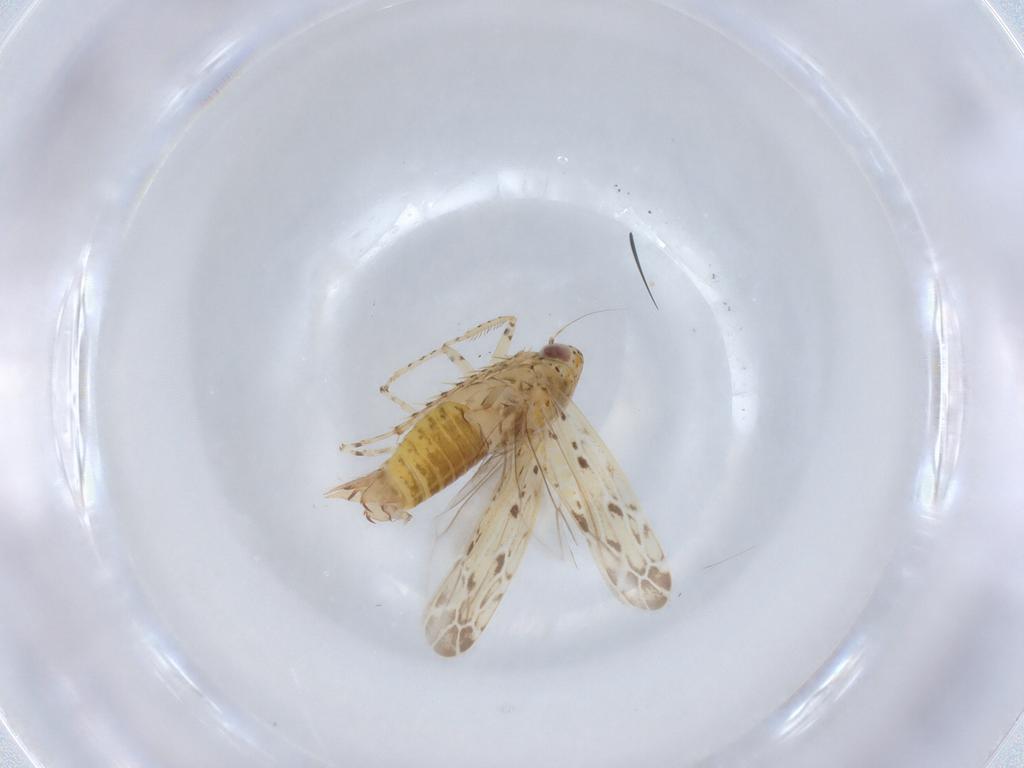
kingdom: Animalia
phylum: Arthropoda
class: Insecta
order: Hemiptera
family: Cicadellidae
